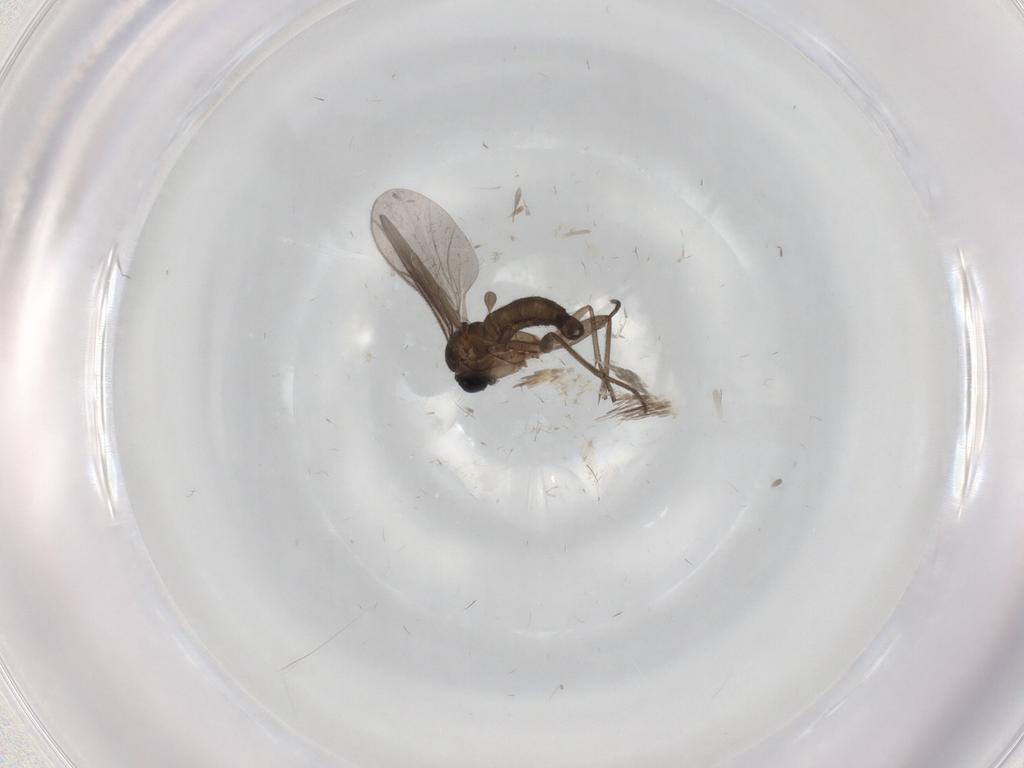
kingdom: Animalia
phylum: Arthropoda
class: Insecta
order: Diptera
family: Sciaridae
